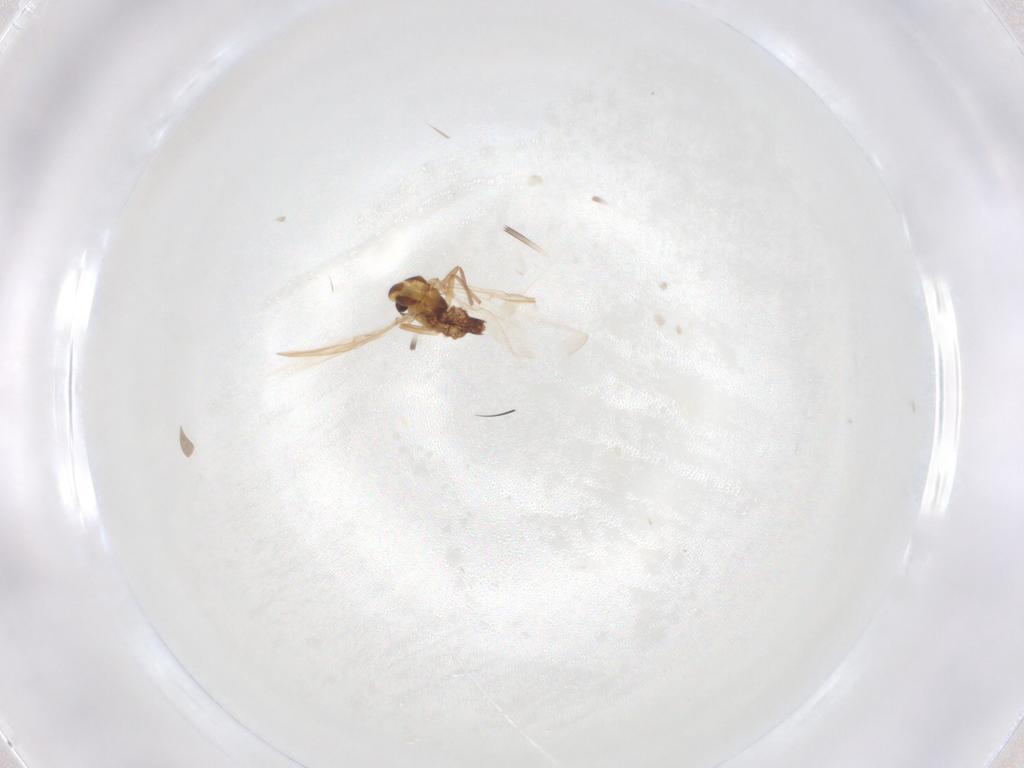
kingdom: Animalia
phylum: Arthropoda
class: Insecta
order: Diptera
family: Chironomidae
